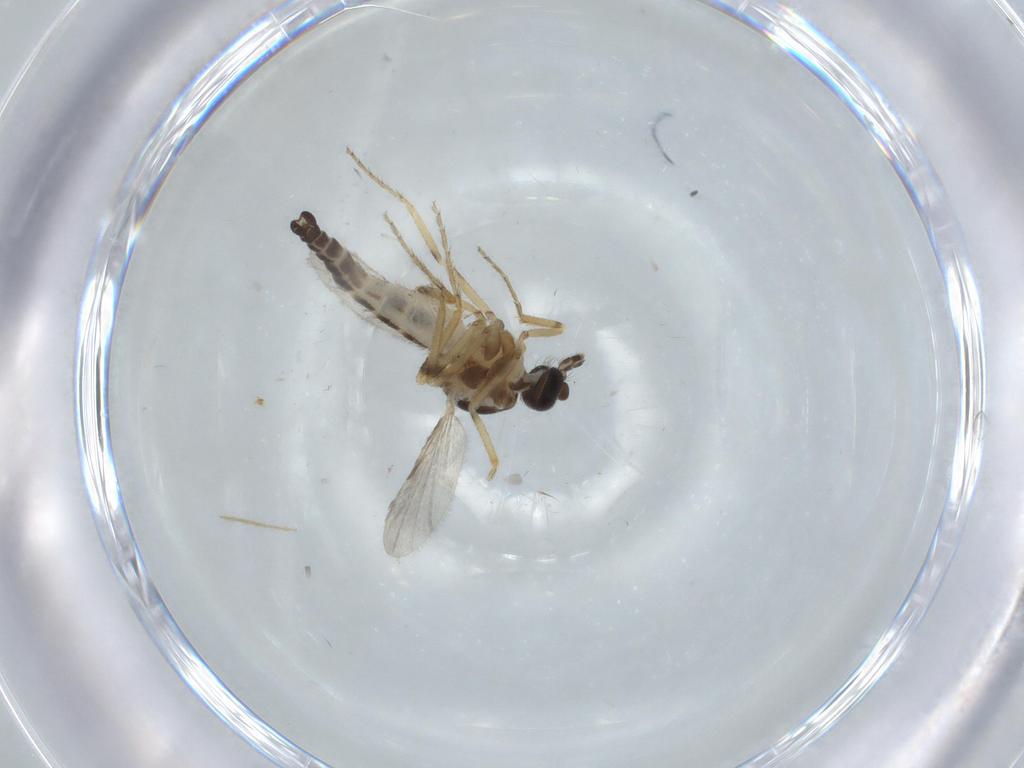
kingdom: Animalia
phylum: Arthropoda
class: Insecta
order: Diptera
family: Ceratopogonidae
